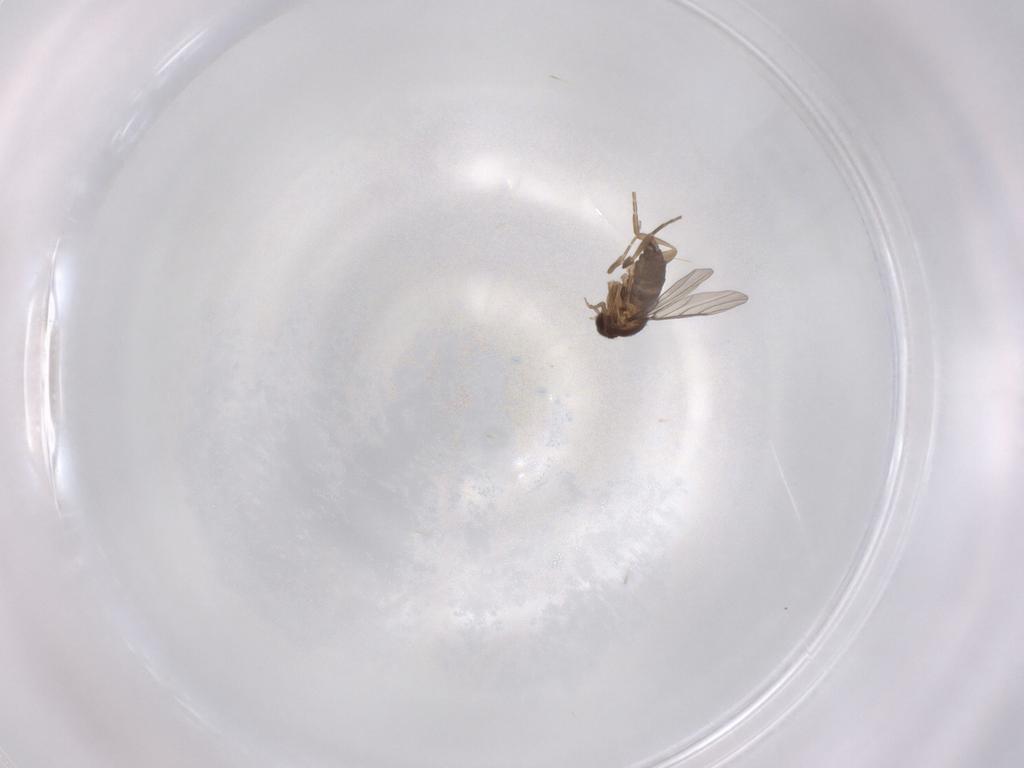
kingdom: Animalia
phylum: Arthropoda
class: Insecta
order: Diptera
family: Phoridae
